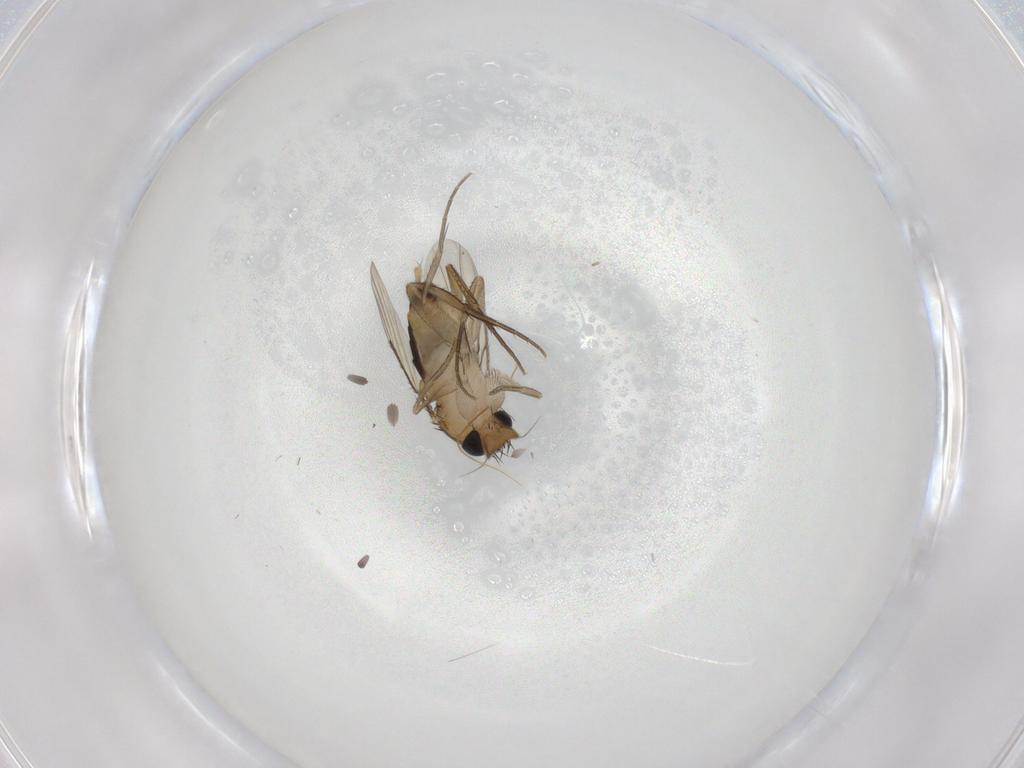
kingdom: Animalia
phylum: Arthropoda
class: Insecta
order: Diptera
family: Phoridae
